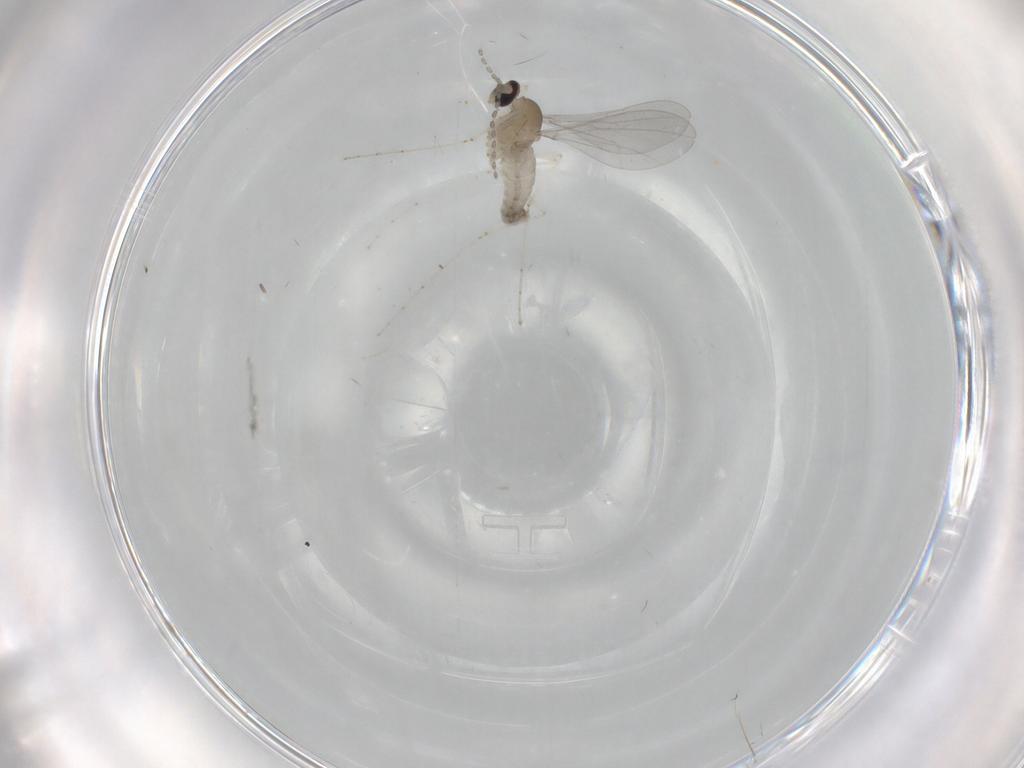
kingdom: Animalia
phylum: Arthropoda
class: Insecta
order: Diptera
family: Cecidomyiidae
